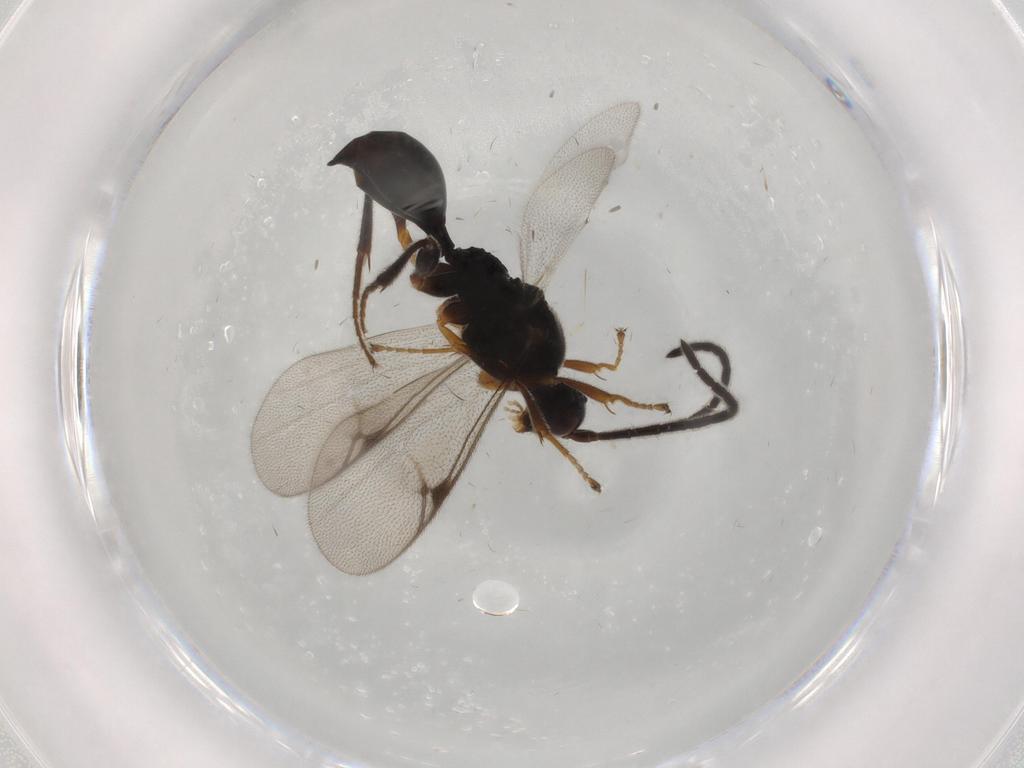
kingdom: Animalia
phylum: Arthropoda
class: Insecta
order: Hymenoptera
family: Proctotrupidae
